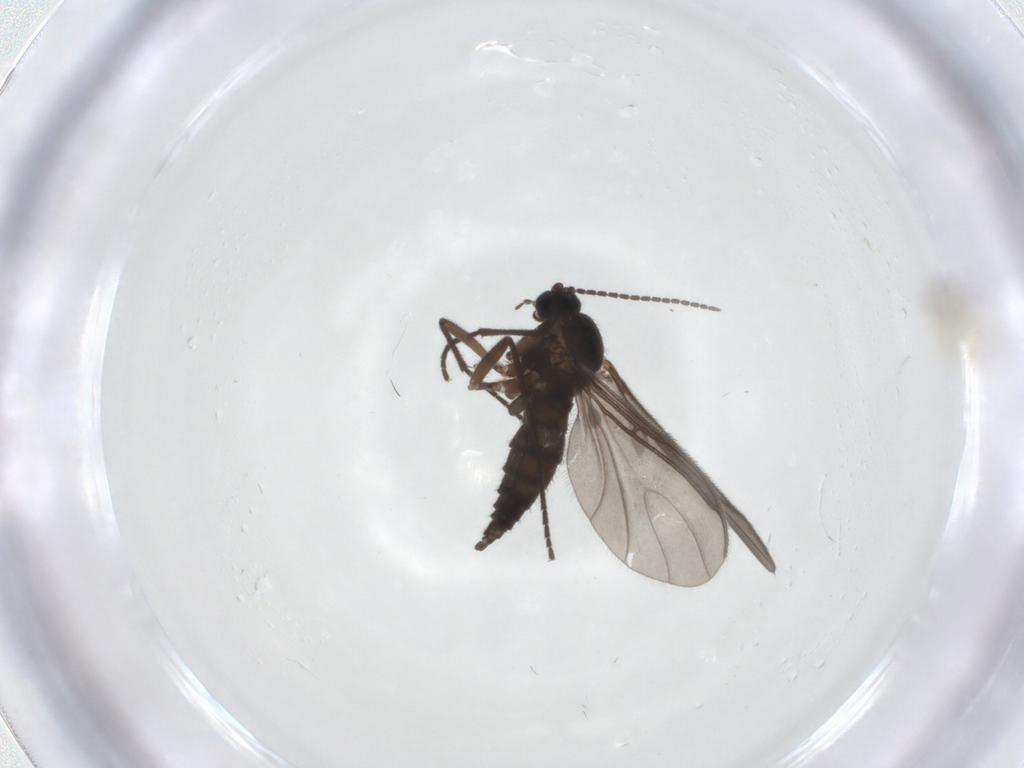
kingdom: Animalia
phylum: Arthropoda
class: Insecta
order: Diptera
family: Sciaridae
